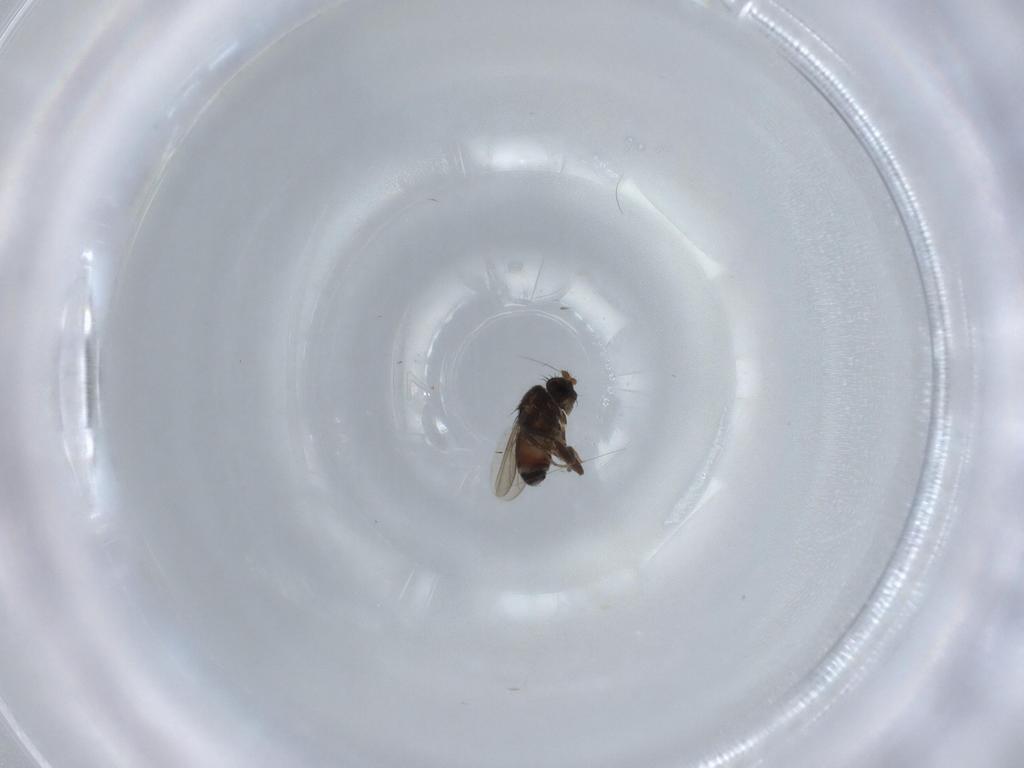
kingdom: Animalia
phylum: Arthropoda
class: Insecta
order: Diptera
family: Sphaeroceridae
